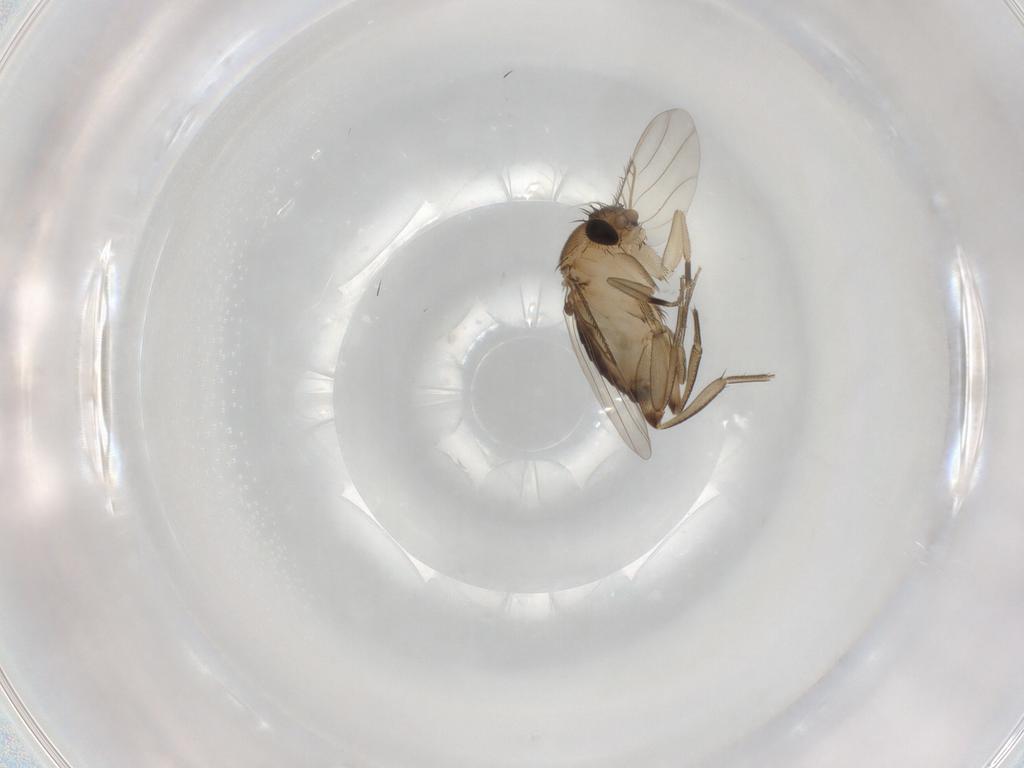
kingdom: Animalia
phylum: Arthropoda
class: Insecta
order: Diptera
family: Phoridae
